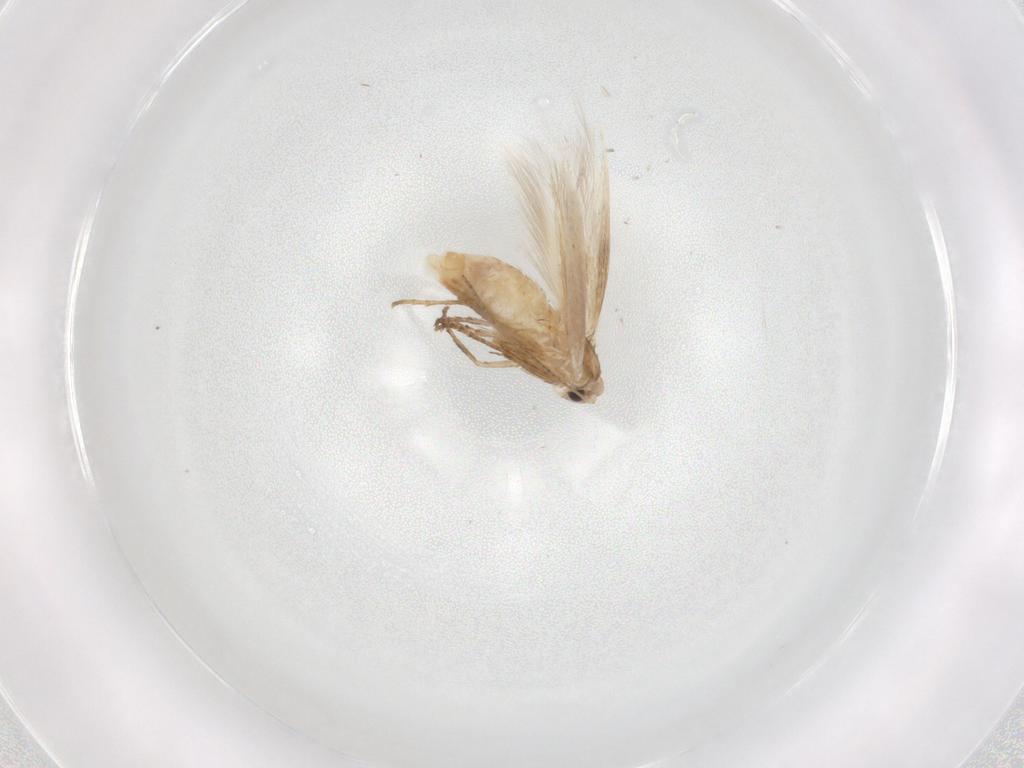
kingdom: Animalia
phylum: Arthropoda
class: Insecta
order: Lepidoptera
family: Bucculatricidae
